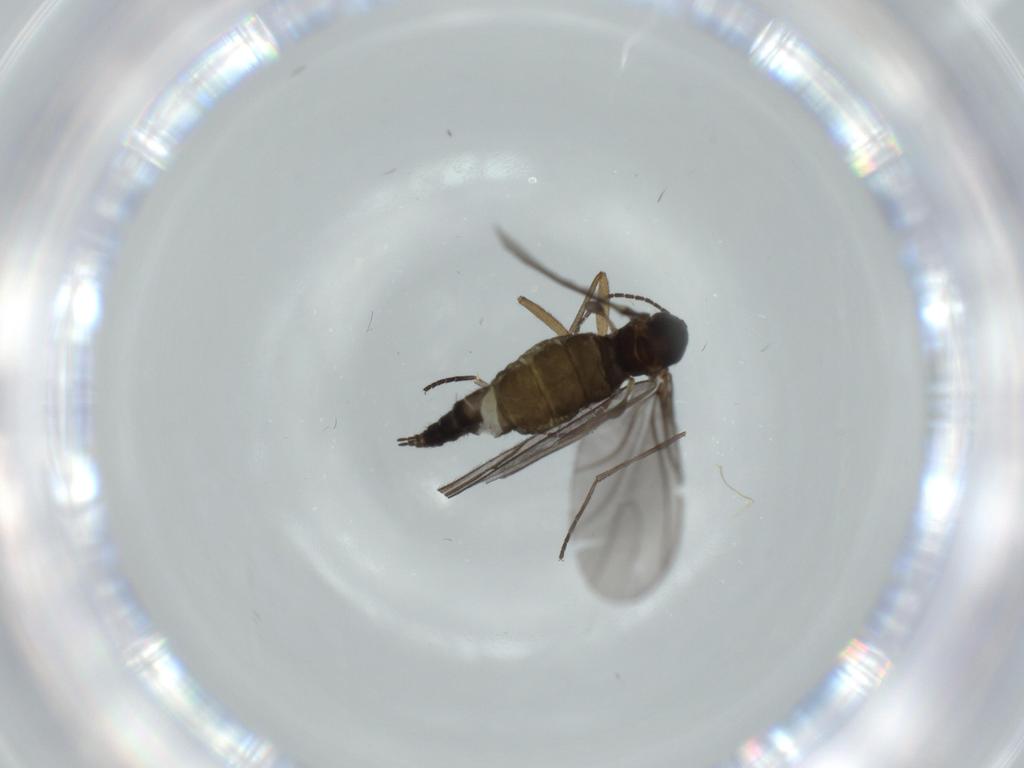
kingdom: Animalia
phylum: Arthropoda
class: Insecta
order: Diptera
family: Sciaridae
